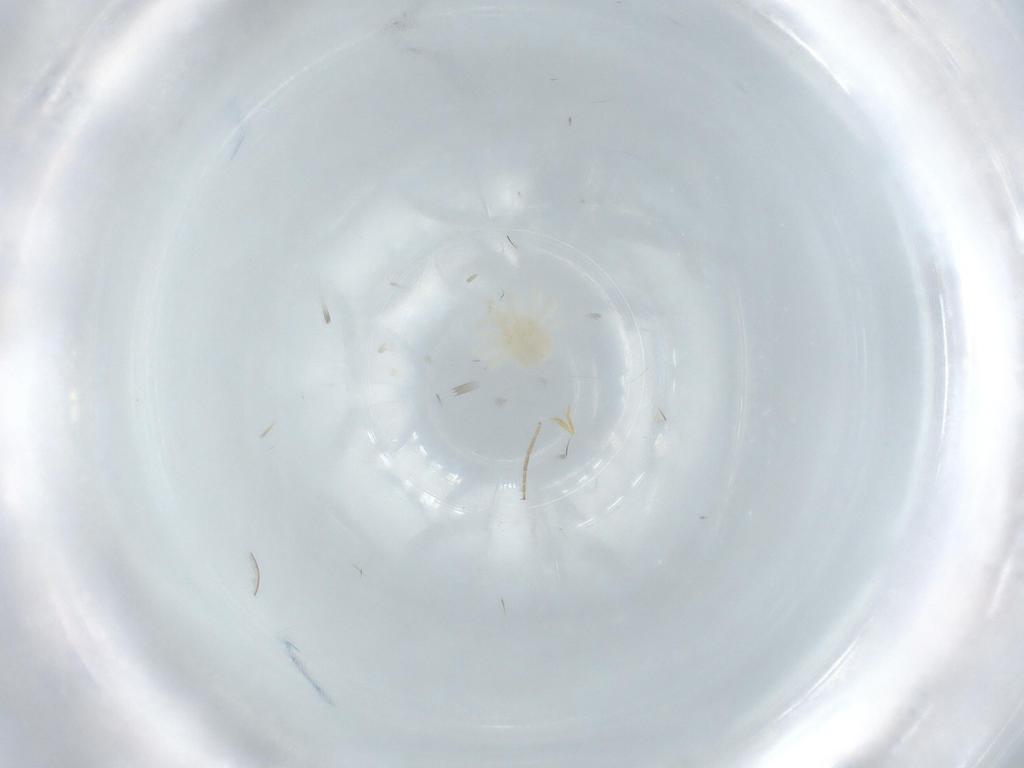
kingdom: Animalia
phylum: Arthropoda
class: Arachnida
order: Trombidiformes
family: Anystidae
